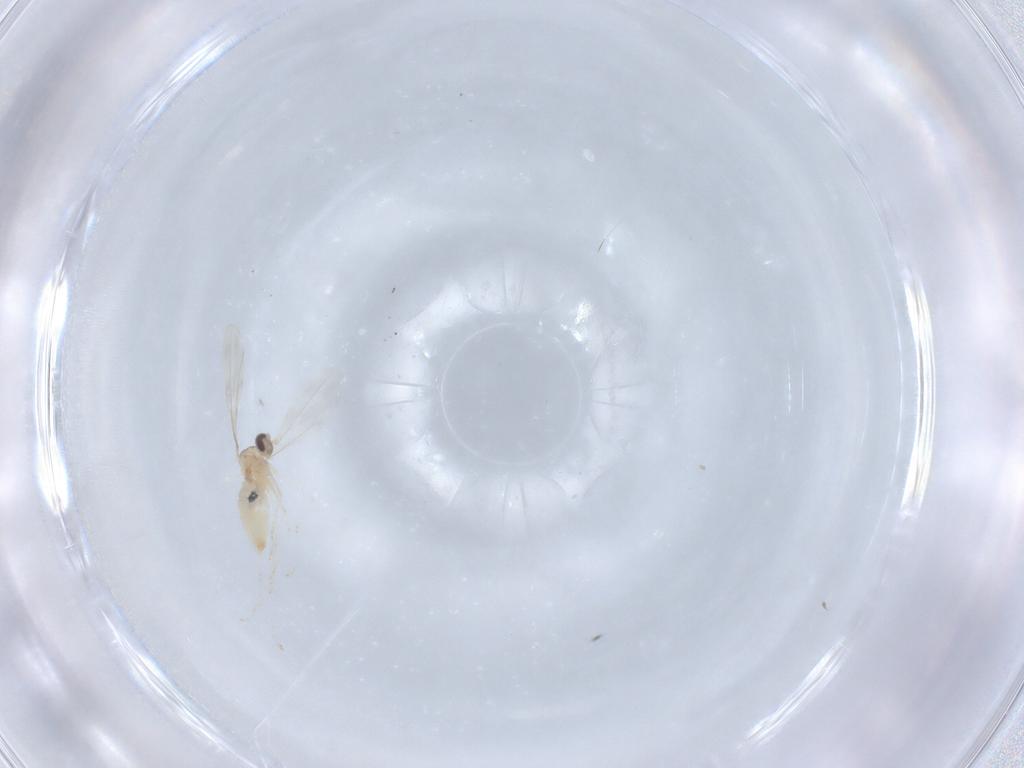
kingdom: Animalia
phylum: Arthropoda
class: Insecta
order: Diptera
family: Cecidomyiidae
